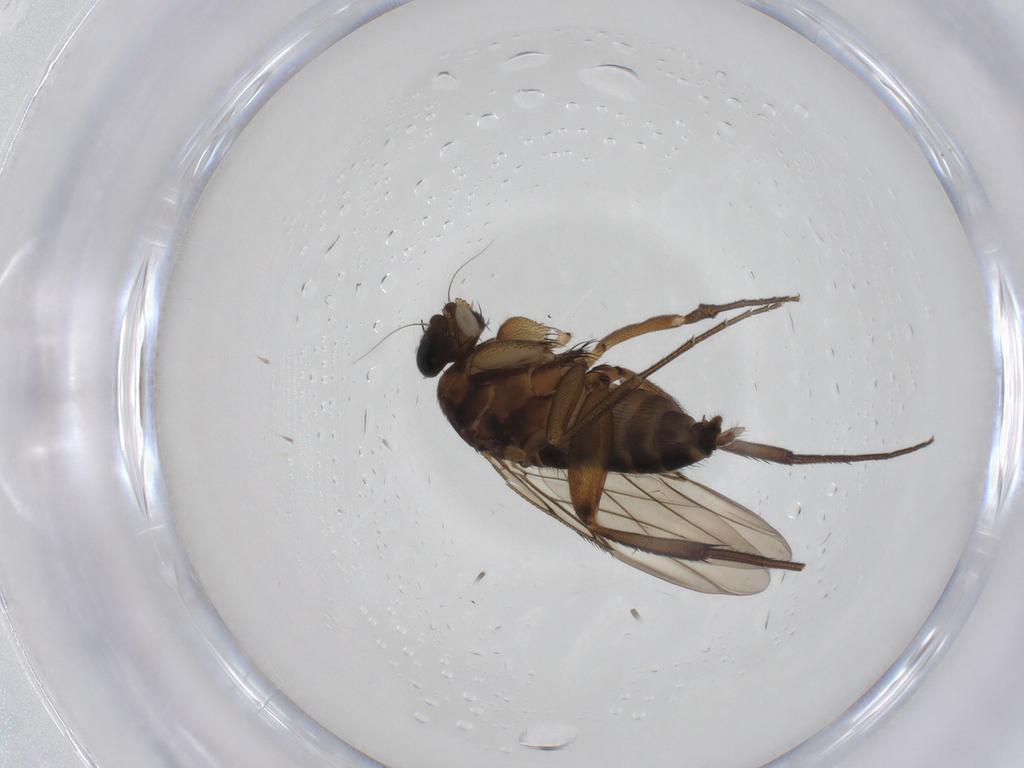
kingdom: Animalia
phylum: Arthropoda
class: Insecta
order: Diptera
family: Phoridae
